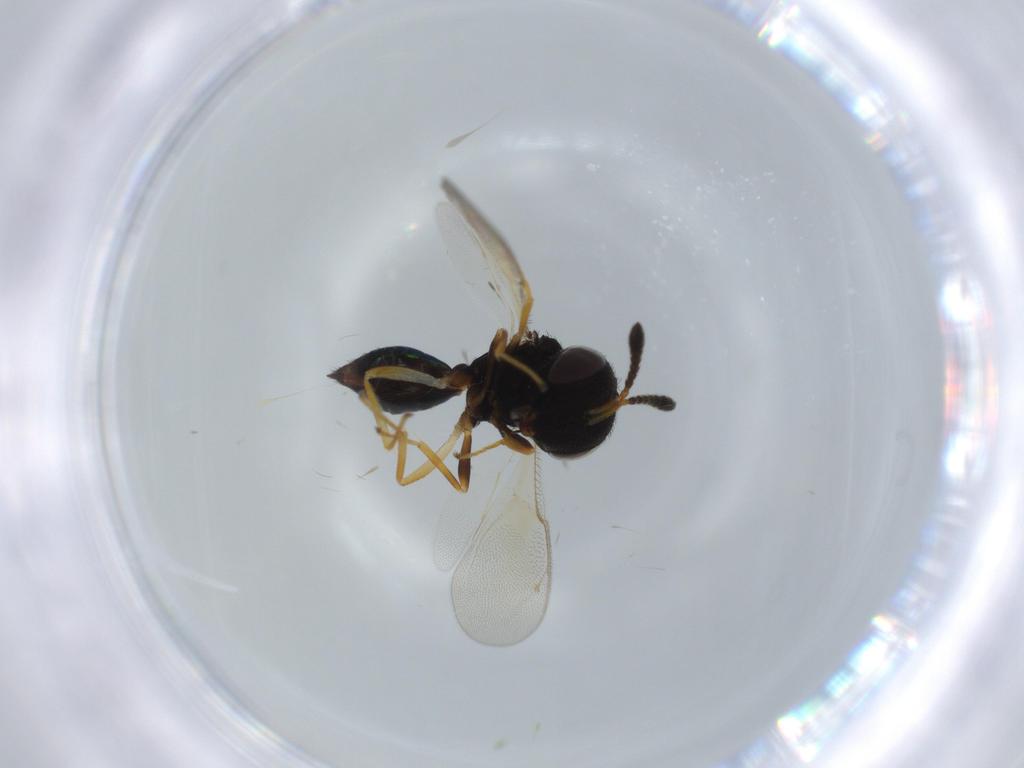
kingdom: Animalia
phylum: Arthropoda
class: Insecta
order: Hymenoptera
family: Pteromalidae
